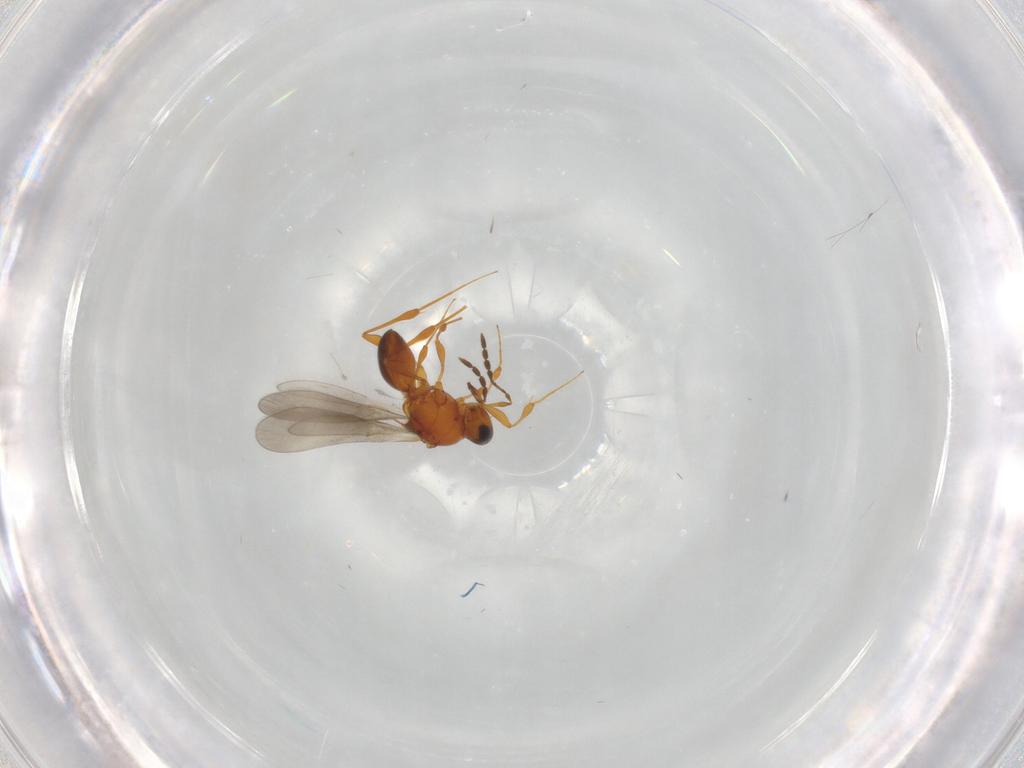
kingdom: Animalia
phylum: Arthropoda
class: Insecta
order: Hymenoptera
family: Platygastridae
